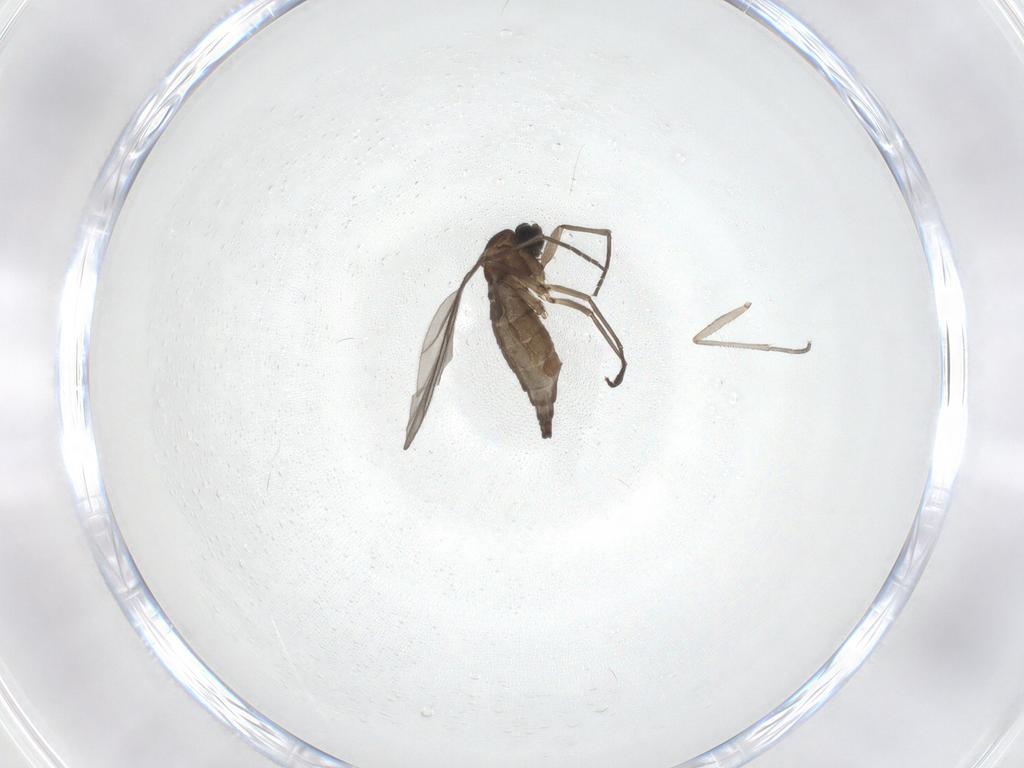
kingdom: Animalia
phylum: Arthropoda
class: Insecta
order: Diptera
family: Sciaridae
